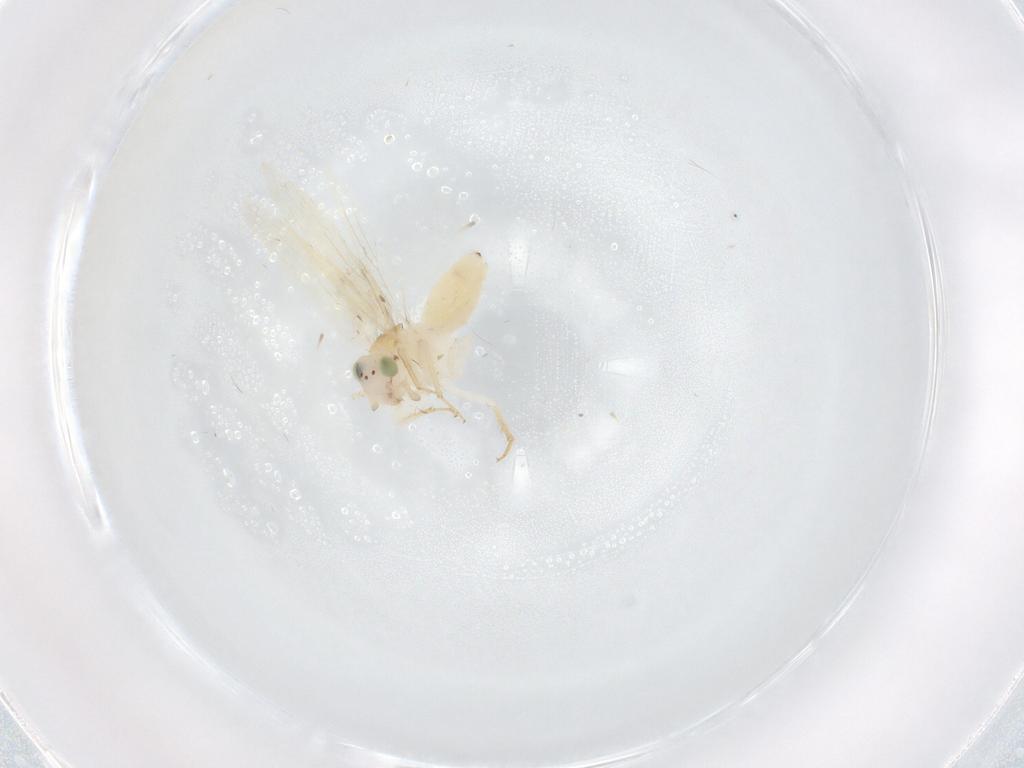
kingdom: Animalia
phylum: Arthropoda
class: Insecta
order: Psocodea
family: Lepidopsocidae
